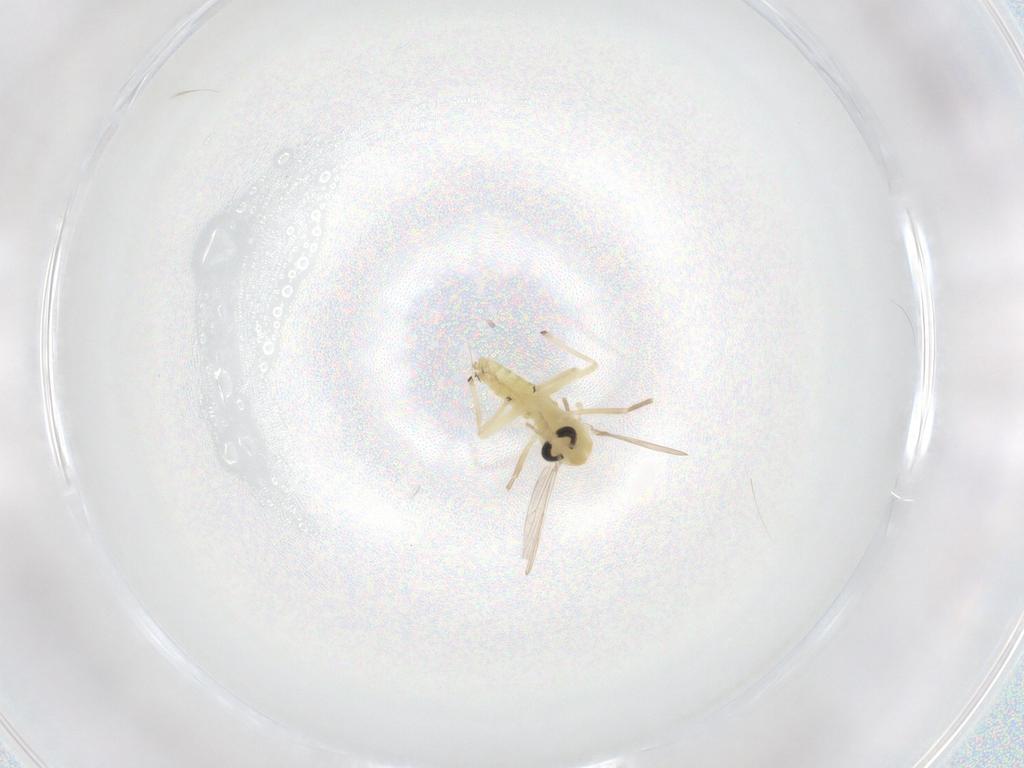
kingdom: Animalia
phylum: Arthropoda
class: Insecta
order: Diptera
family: Chironomidae
